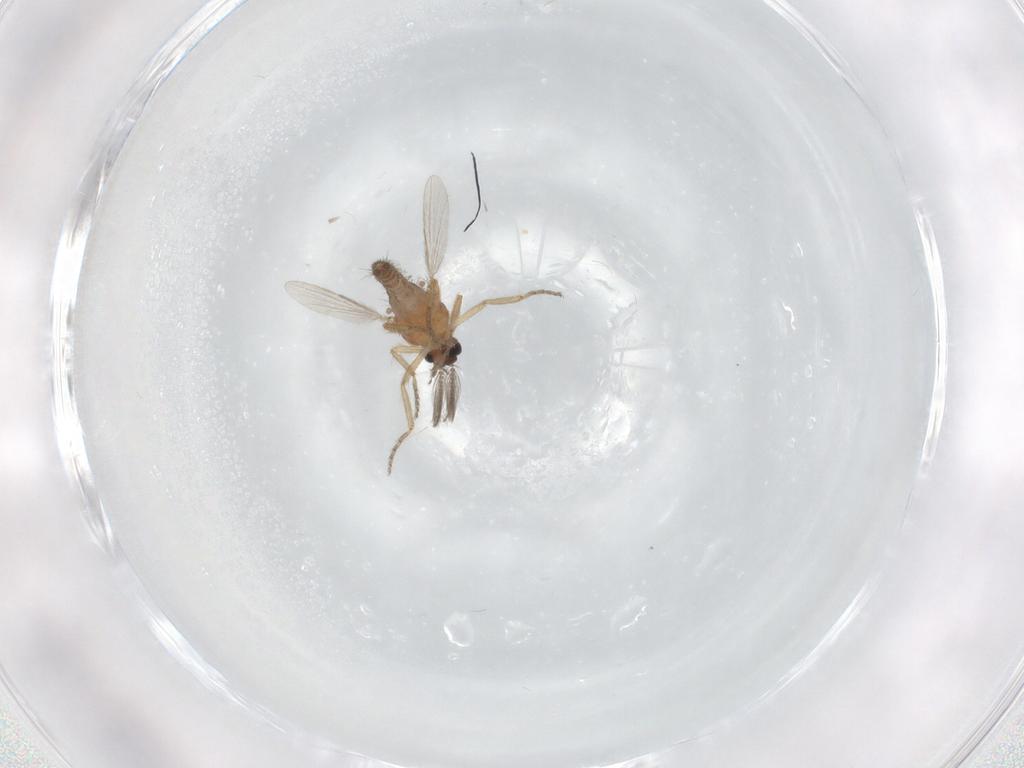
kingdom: Animalia
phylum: Arthropoda
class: Insecta
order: Diptera
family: Ceratopogonidae
